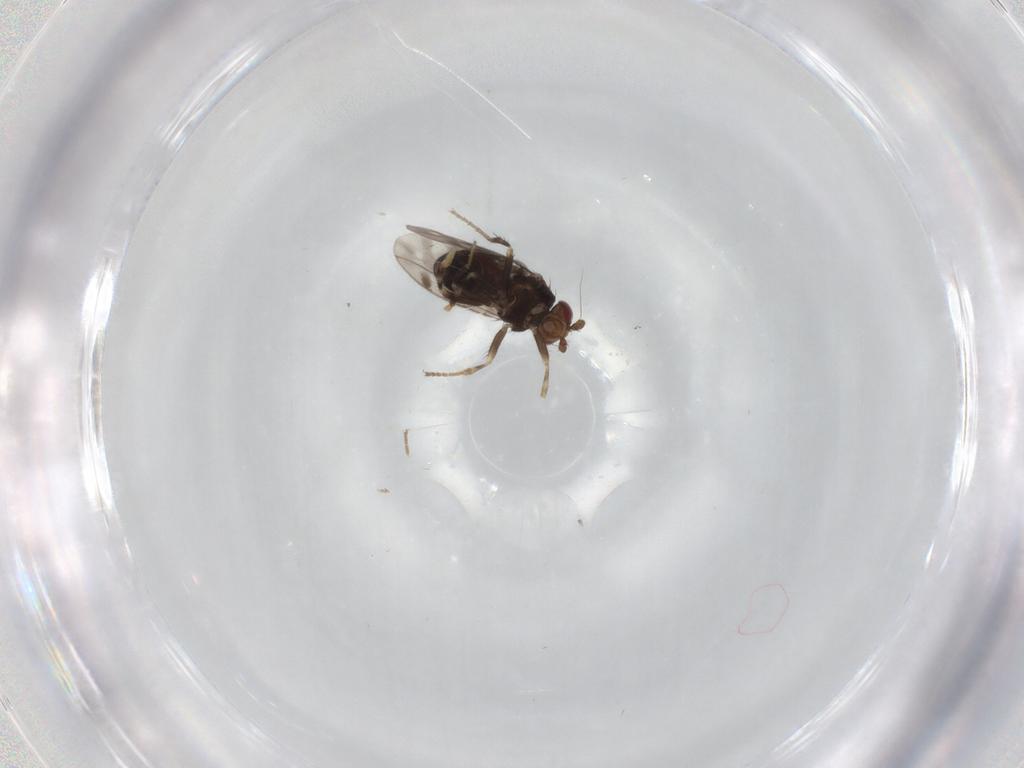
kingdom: Animalia
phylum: Arthropoda
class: Insecta
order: Diptera
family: Sphaeroceridae
